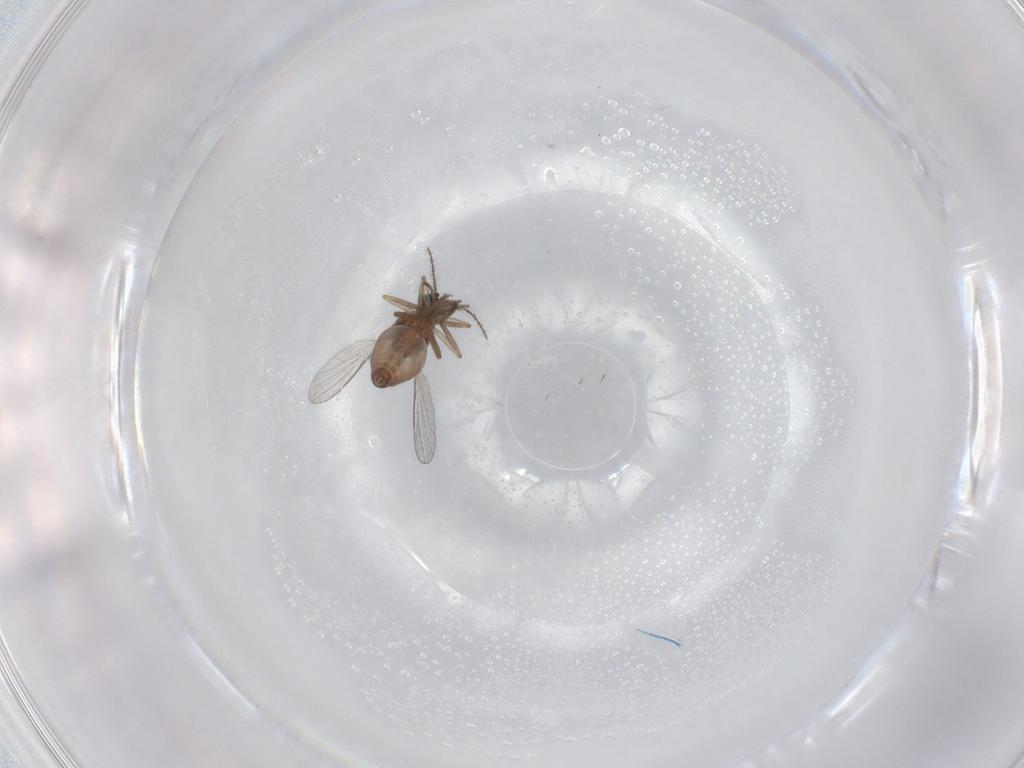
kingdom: Animalia
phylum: Arthropoda
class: Insecta
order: Diptera
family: Ceratopogonidae
